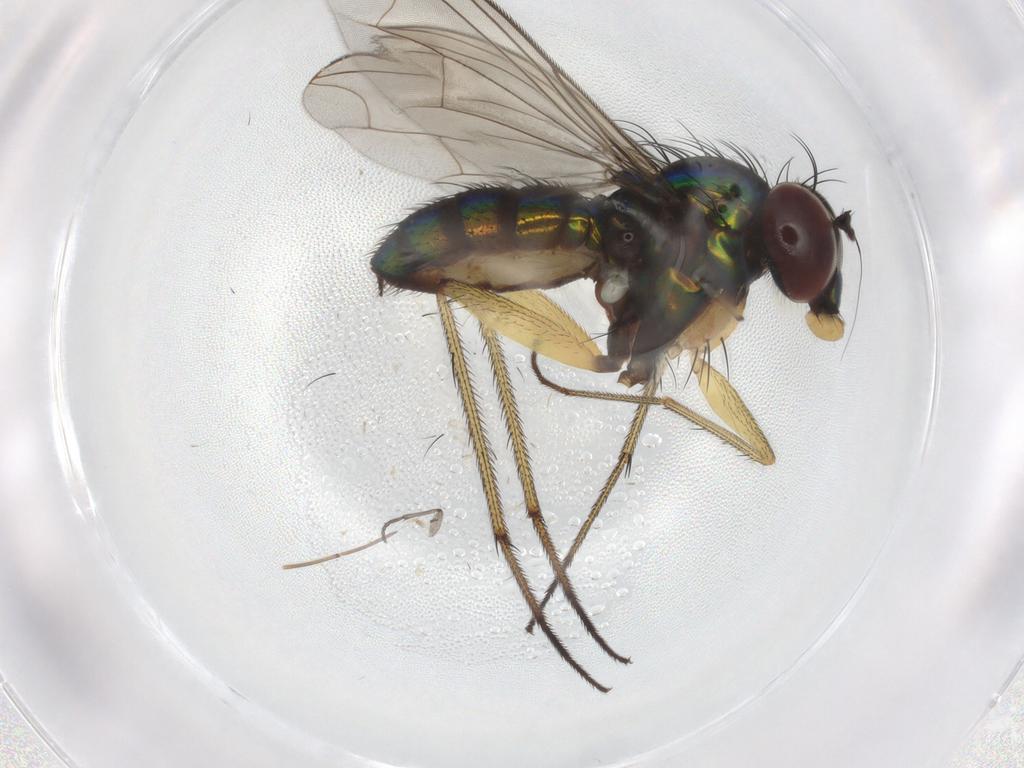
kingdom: Animalia
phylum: Arthropoda
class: Insecta
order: Diptera
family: Dolichopodidae
